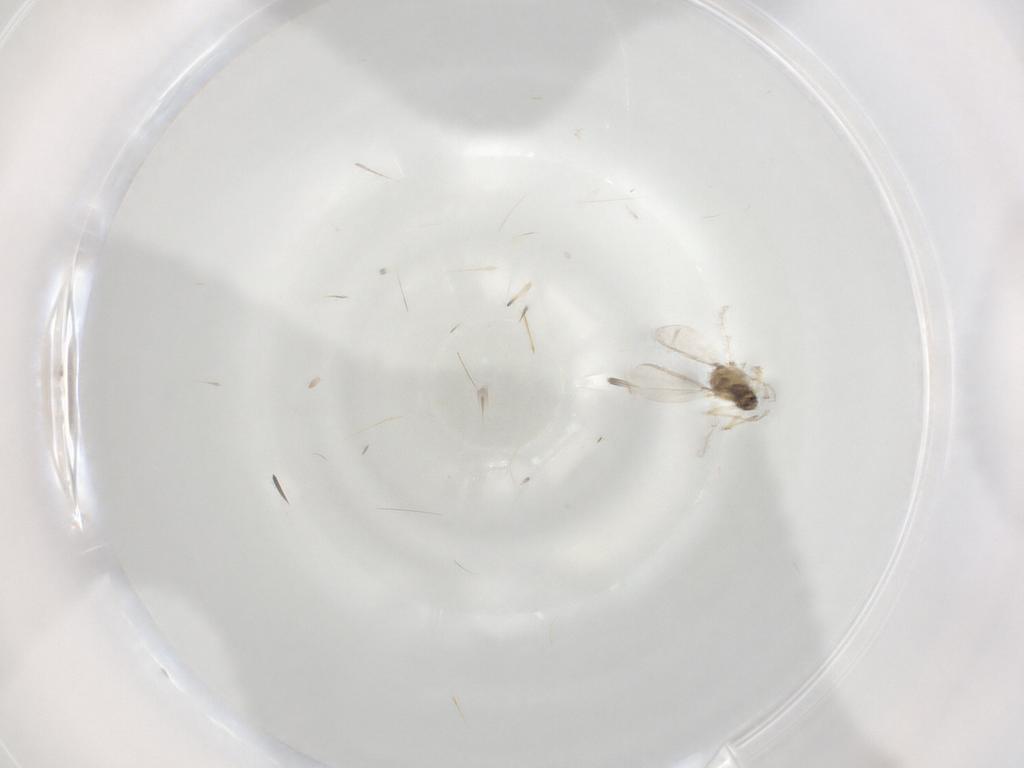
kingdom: Animalia
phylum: Arthropoda
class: Insecta
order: Diptera
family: Chironomidae
